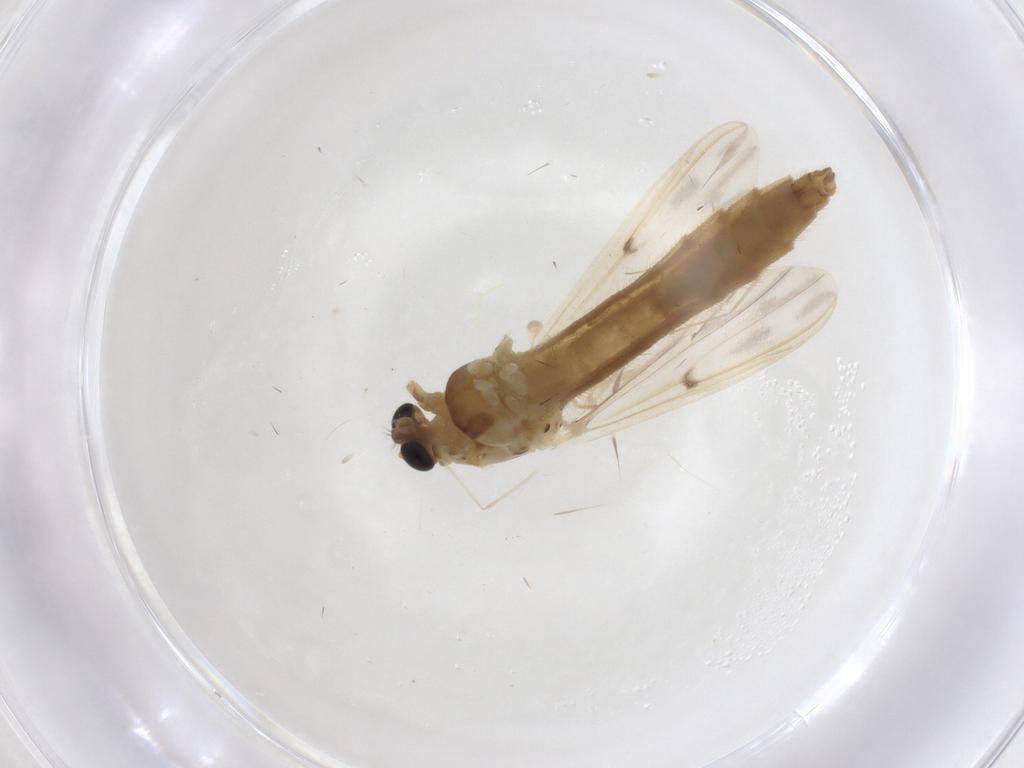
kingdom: Animalia
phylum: Arthropoda
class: Insecta
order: Diptera
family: Chironomidae
